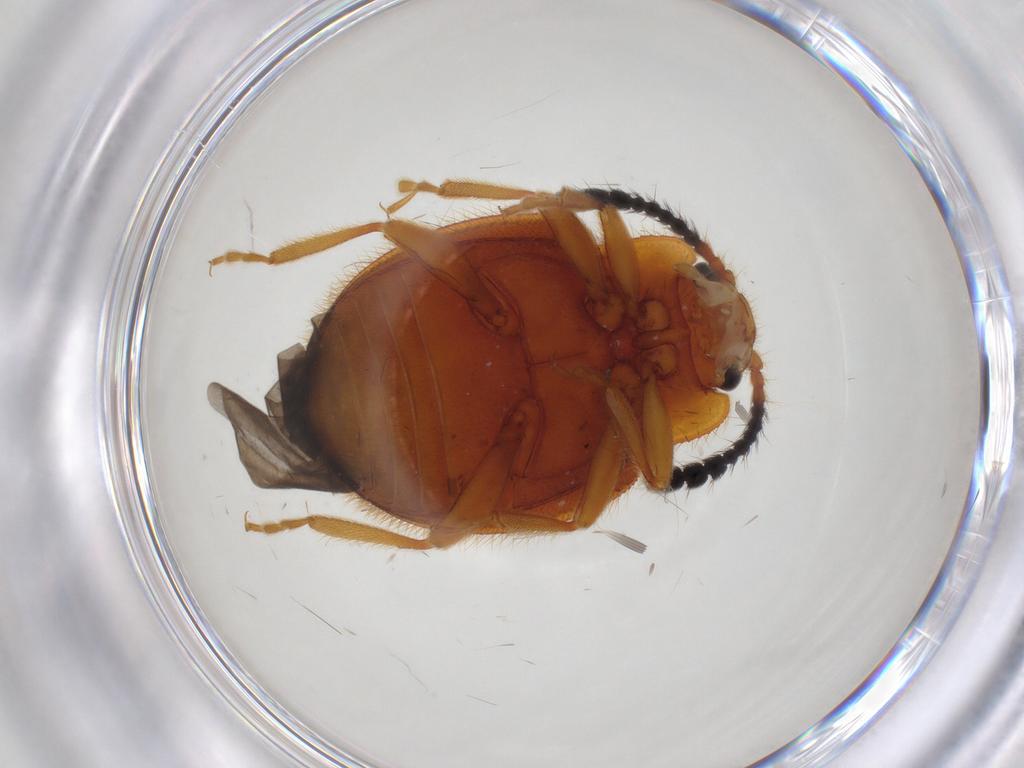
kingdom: Animalia
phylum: Arthropoda
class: Insecta
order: Coleoptera
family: Endomychidae
